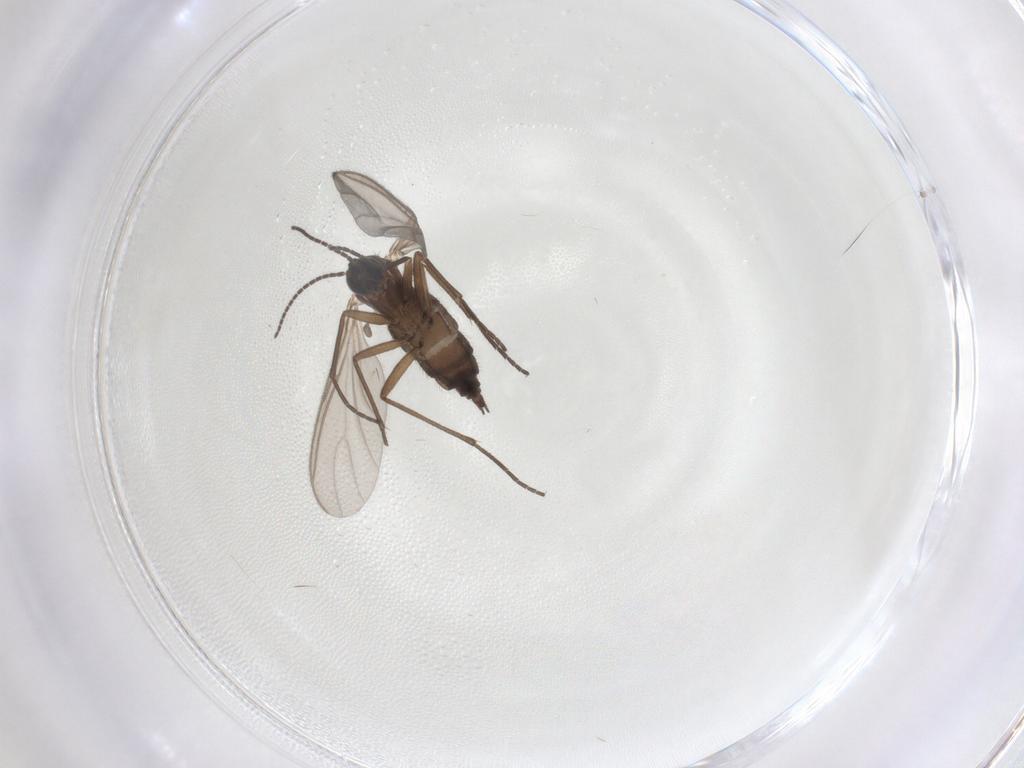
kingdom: Animalia
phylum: Arthropoda
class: Insecta
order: Diptera
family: Sciaridae
